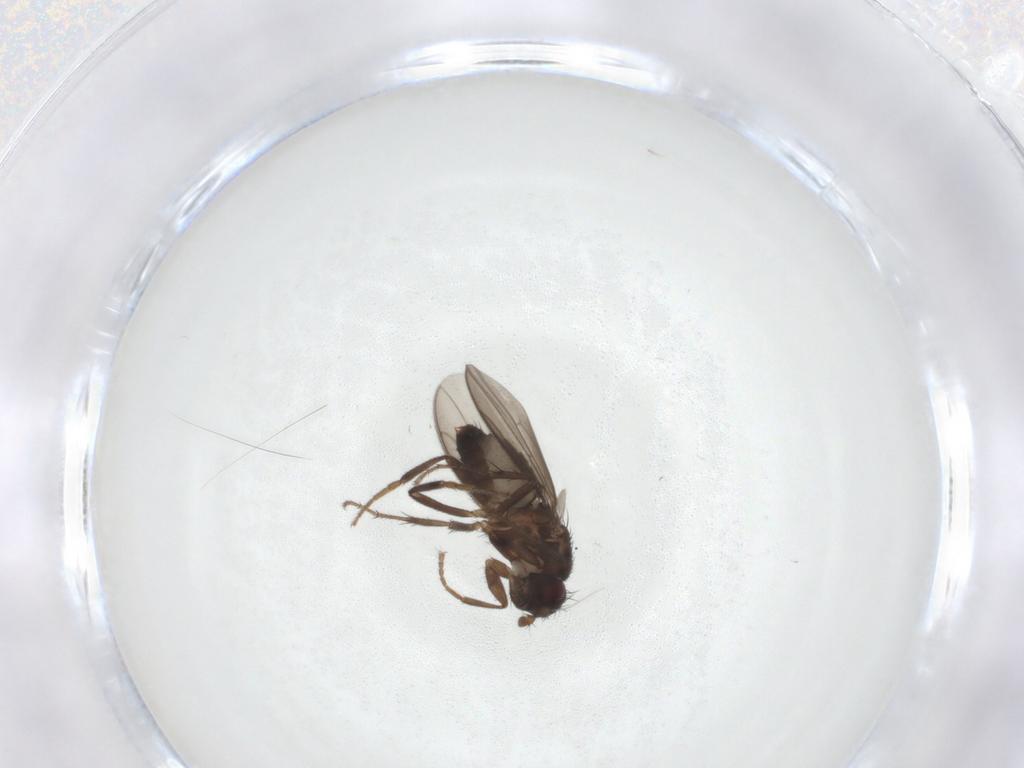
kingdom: Animalia
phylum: Arthropoda
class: Insecta
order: Diptera
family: Sphaeroceridae
